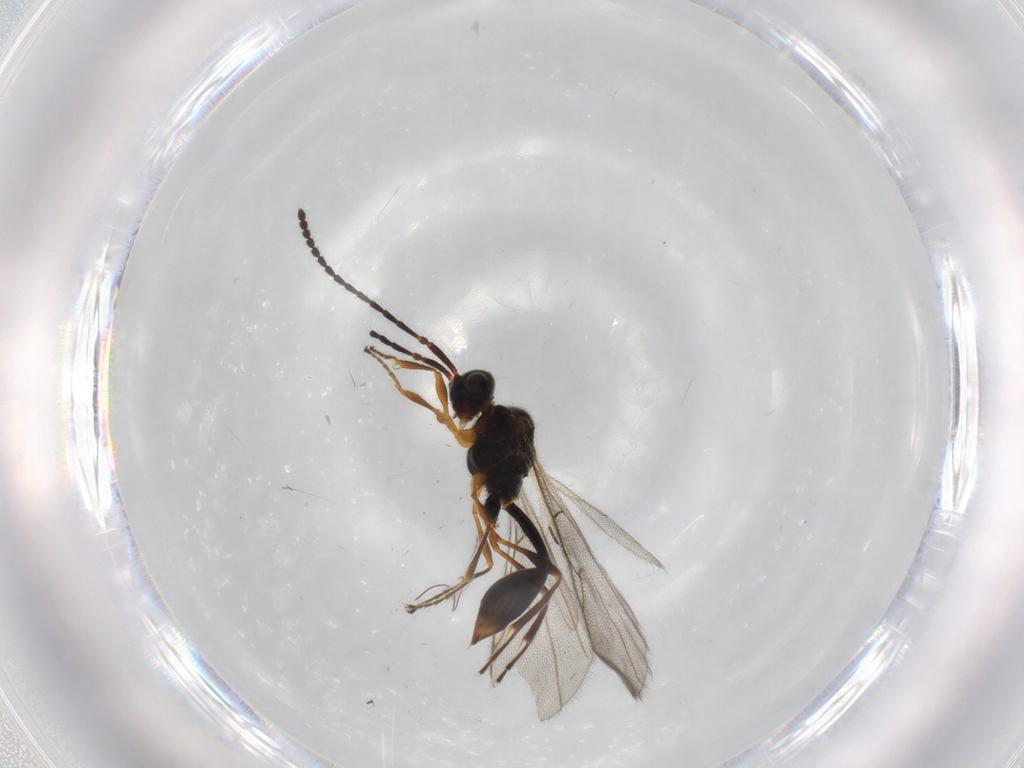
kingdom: Animalia
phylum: Arthropoda
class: Insecta
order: Hymenoptera
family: Diapriidae
